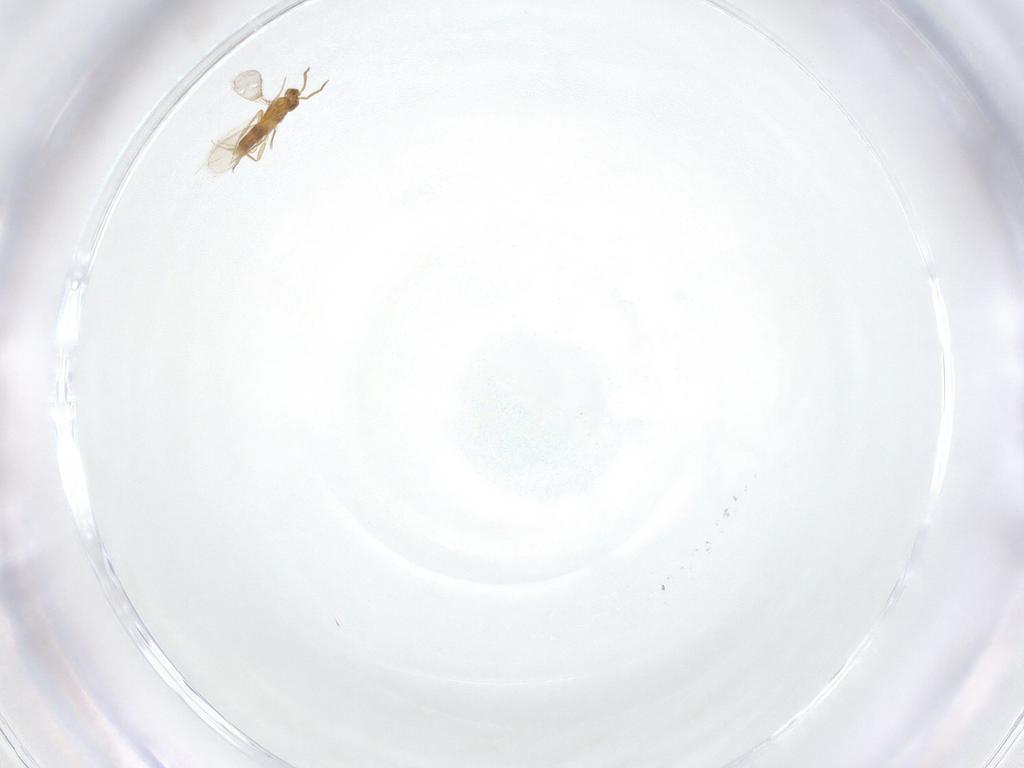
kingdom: Animalia
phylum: Arthropoda
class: Insecta
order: Hymenoptera
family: Aphelinidae
